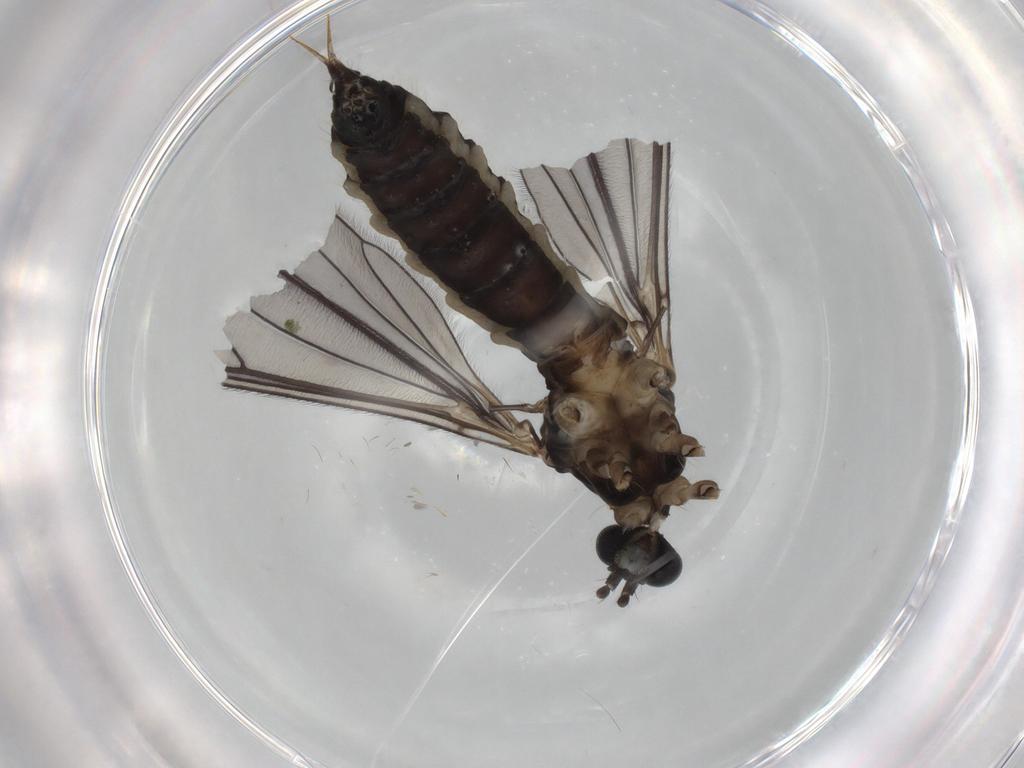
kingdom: Animalia
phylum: Arthropoda
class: Insecta
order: Diptera
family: Limoniidae
